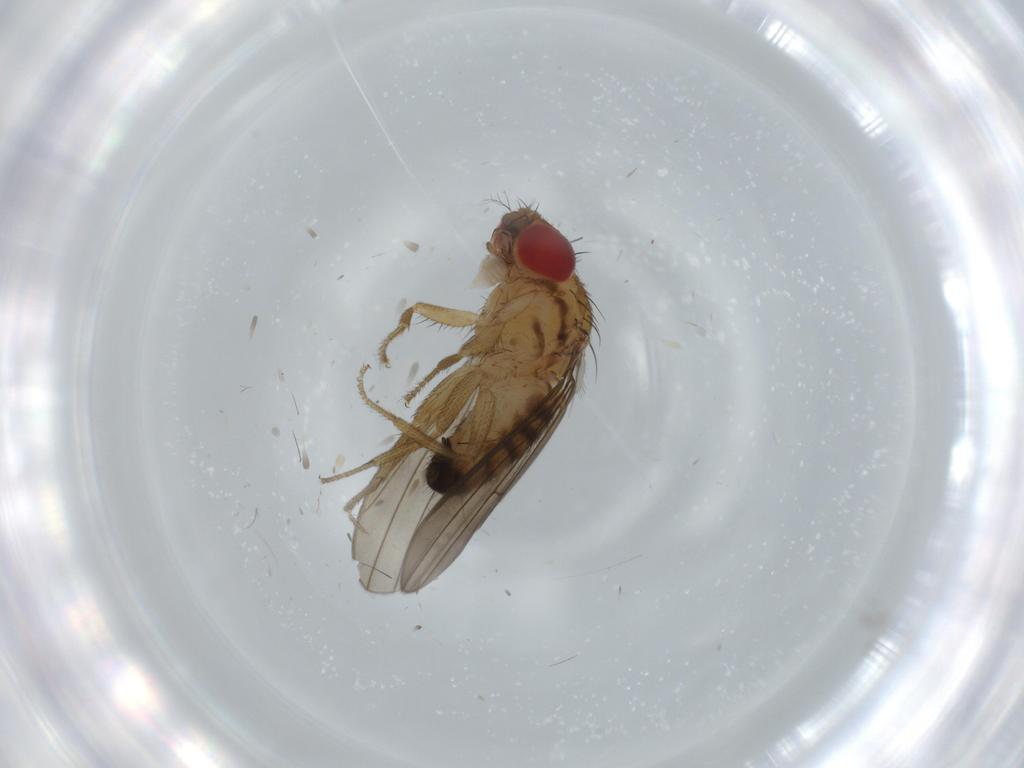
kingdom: Animalia
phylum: Arthropoda
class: Insecta
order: Diptera
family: Drosophilidae
